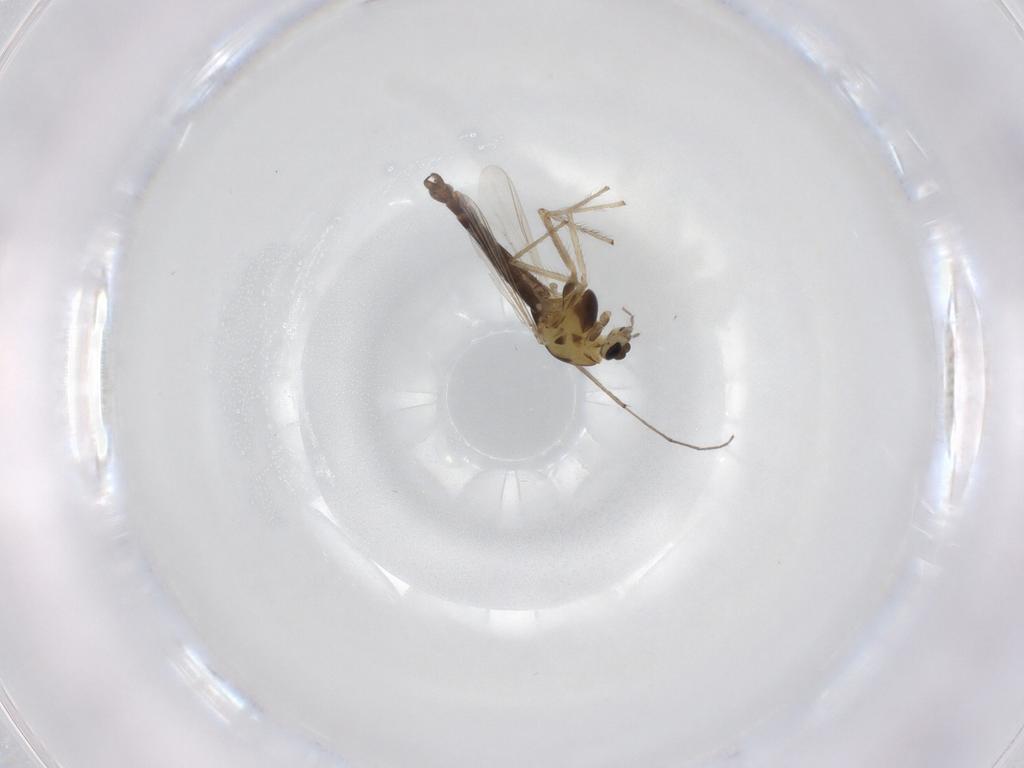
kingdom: Animalia
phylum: Arthropoda
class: Insecta
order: Diptera
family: Chironomidae
